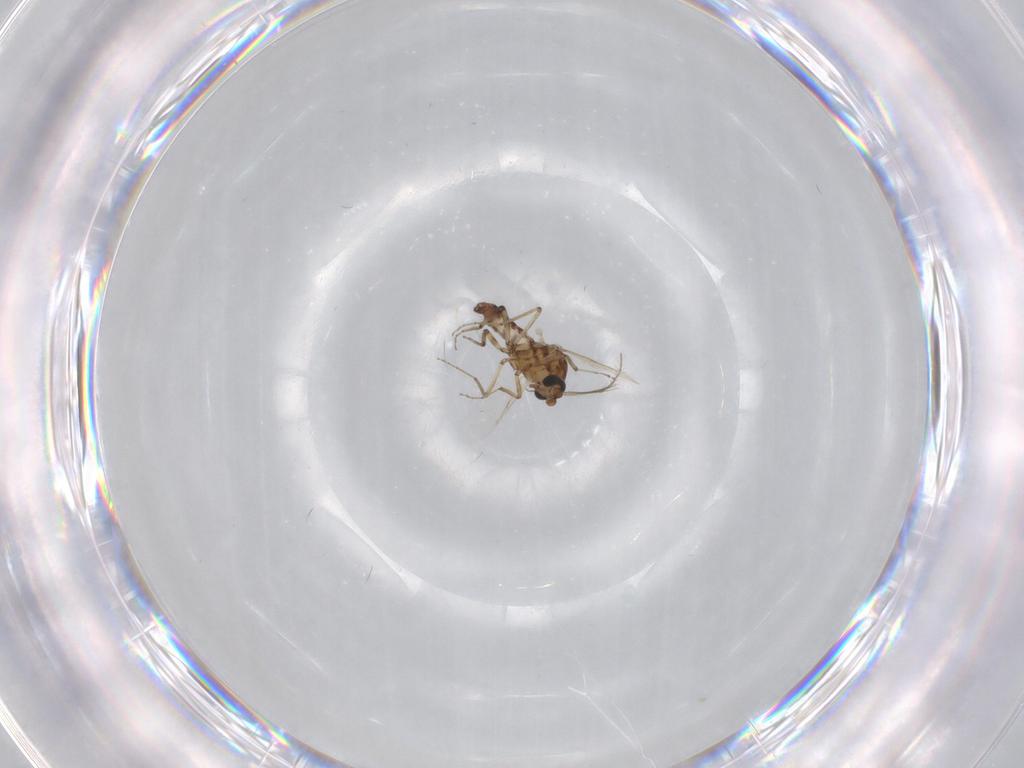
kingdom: Animalia
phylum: Arthropoda
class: Insecta
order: Diptera
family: Ceratopogonidae
